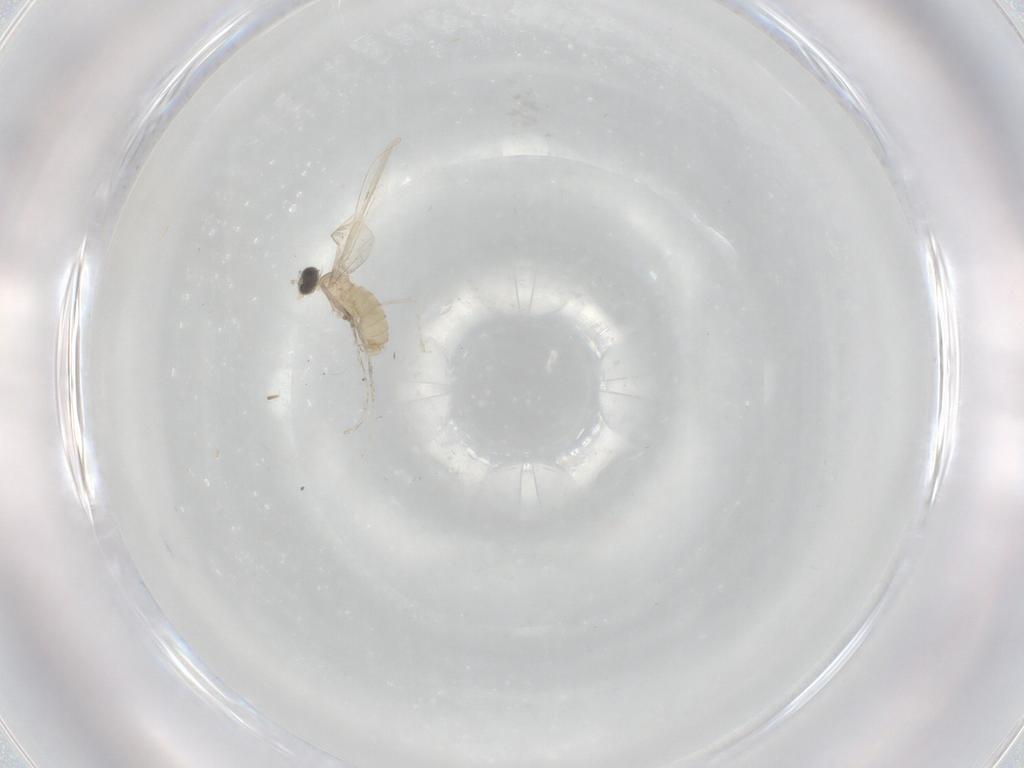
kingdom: Animalia
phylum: Arthropoda
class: Insecta
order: Diptera
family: Cecidomyiidae
